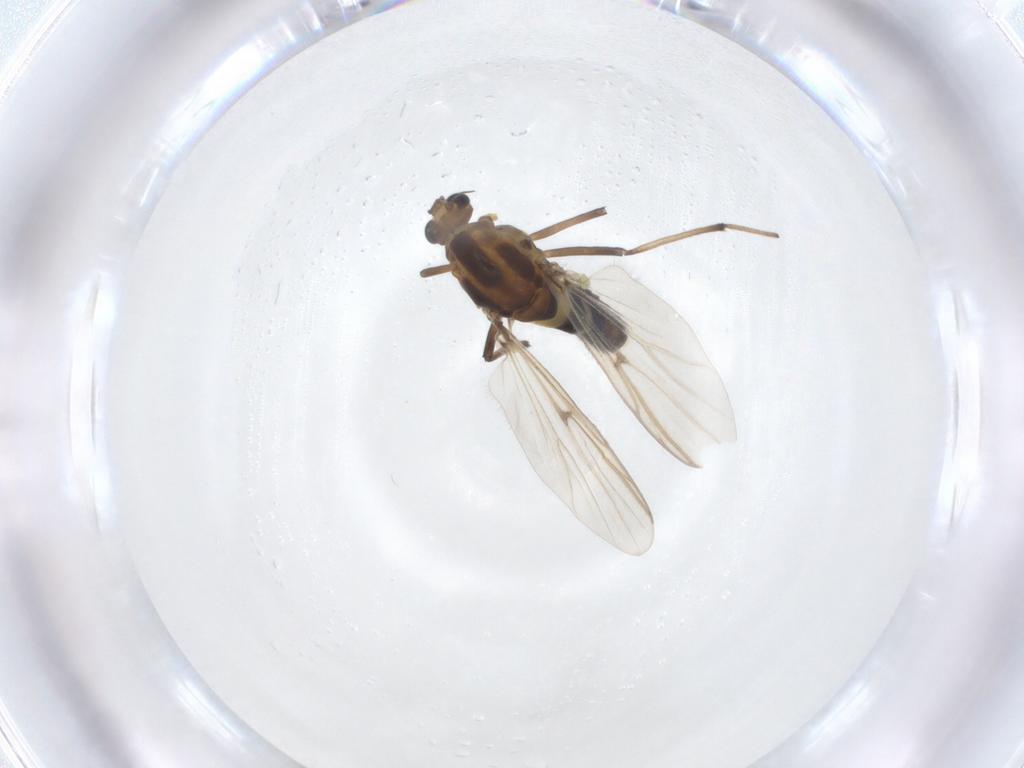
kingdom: Animalia
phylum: Arthropoda
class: Insecta
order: Diptera
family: Chironomidae
